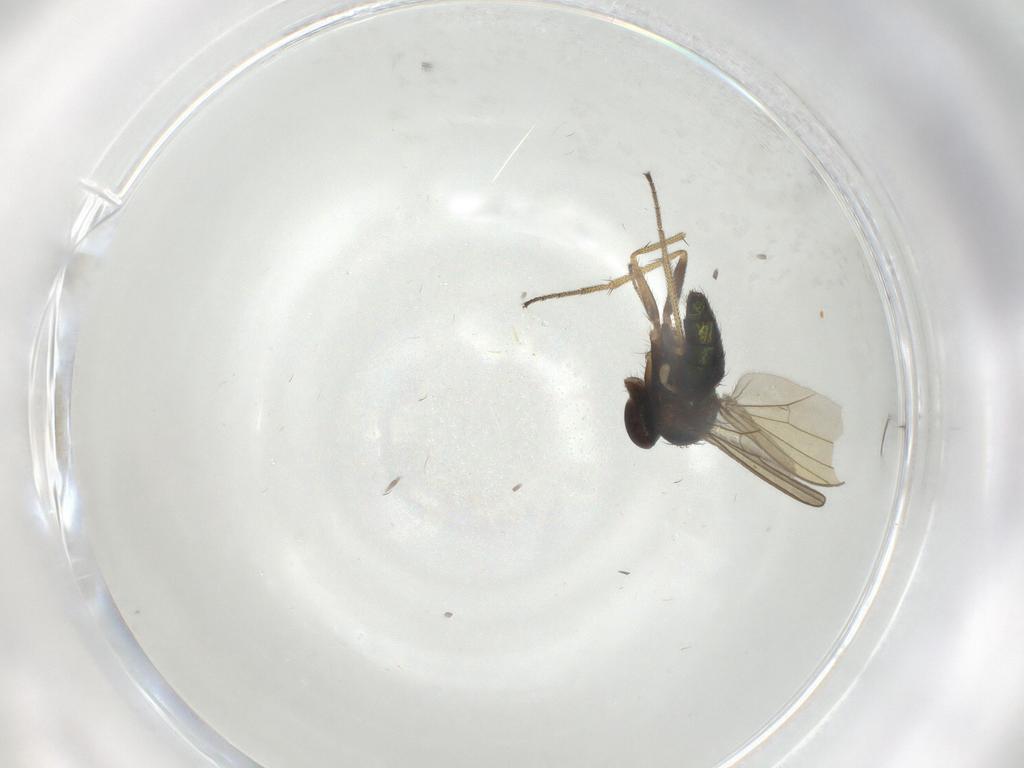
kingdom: Animalia
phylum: Arthropoda
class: Insecta
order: Diptera
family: Dolichopodidae
